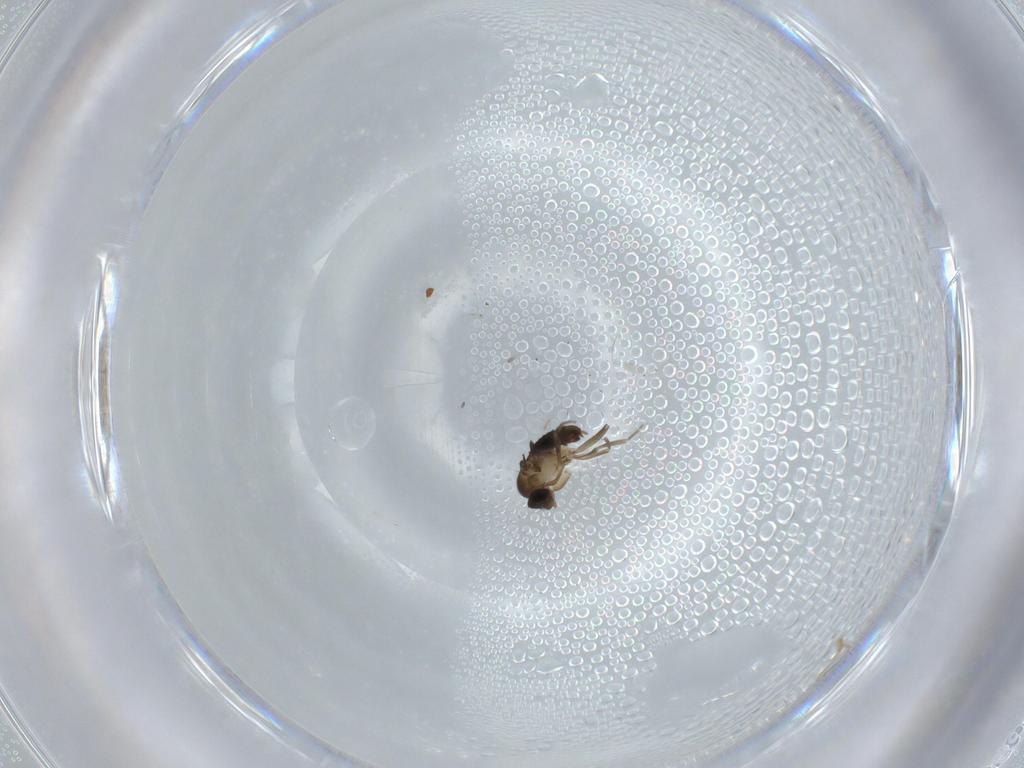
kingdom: Animalia
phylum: Arthropoda
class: Insecta
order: Diptera
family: Phoridae
